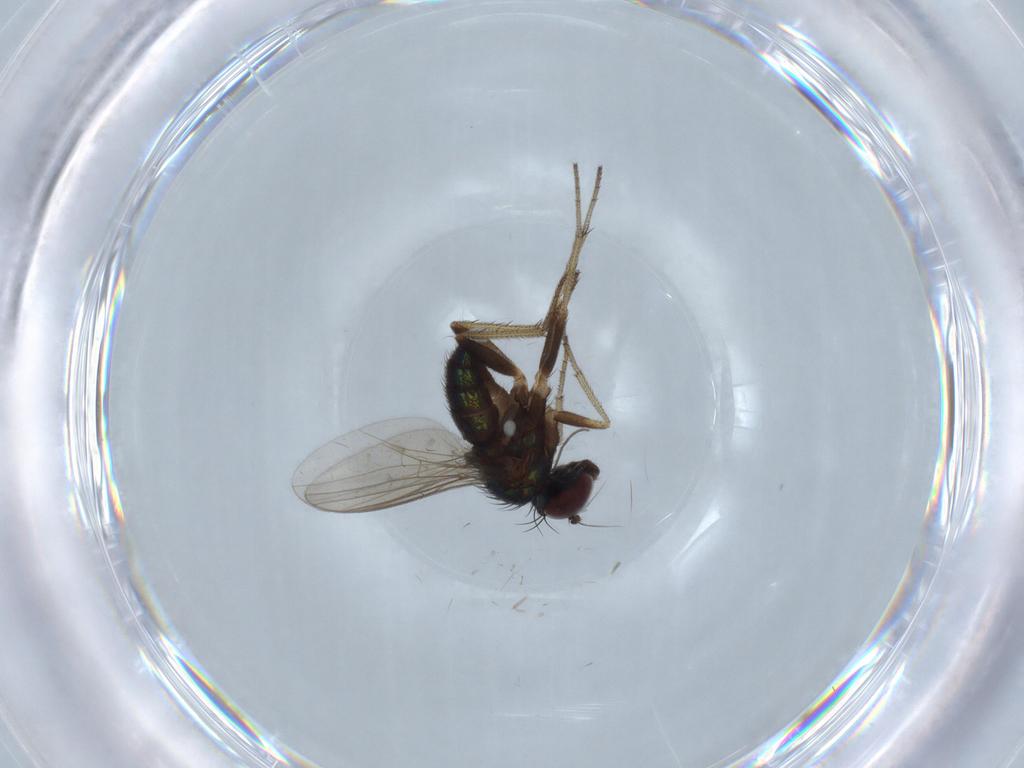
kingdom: Animalia
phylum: Arthropoda
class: Insecta
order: Diptera
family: Dolichopodidae
